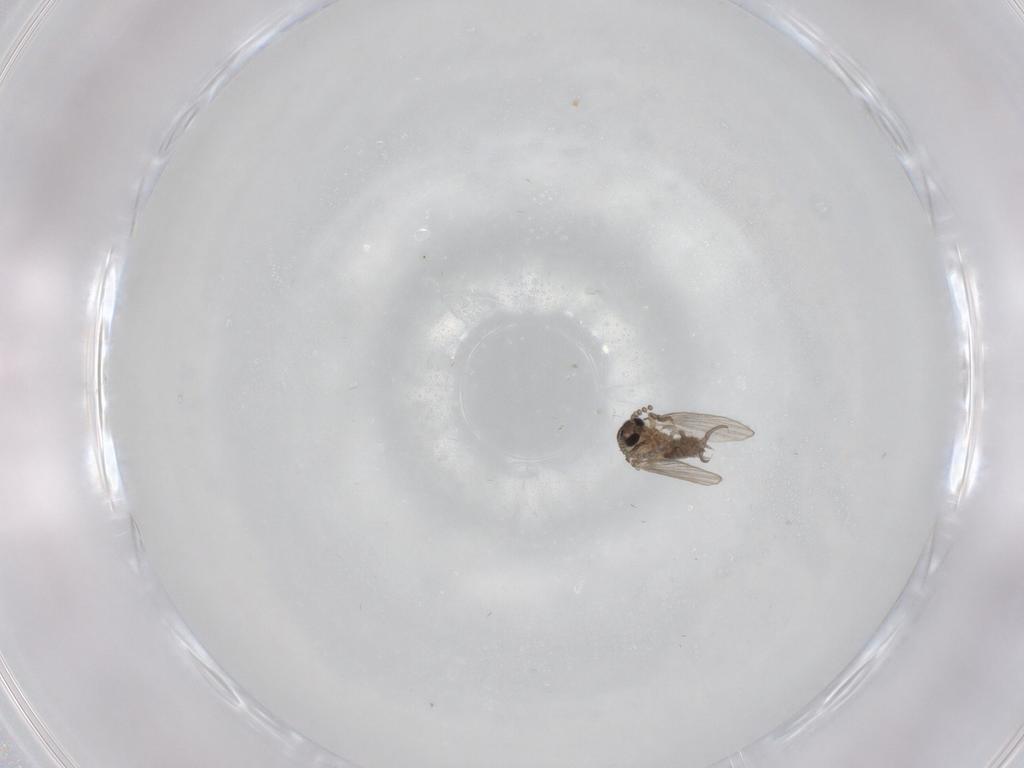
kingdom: Animalia
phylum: Arthropoda
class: Insecta
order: Diptera
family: Psychodidae
